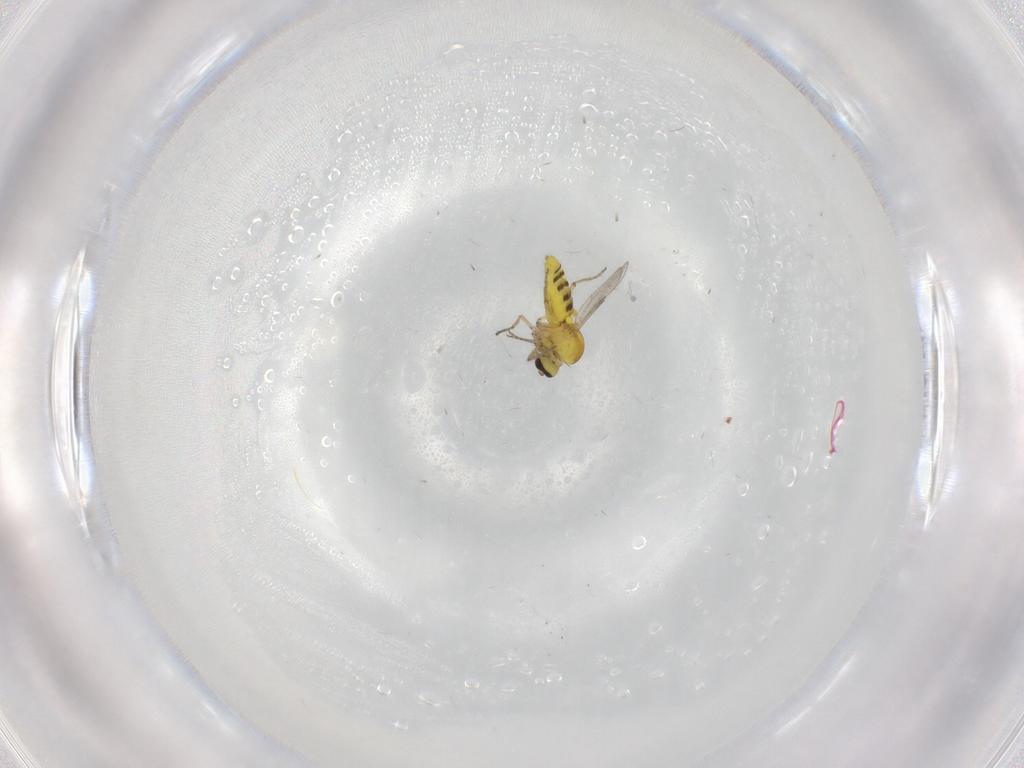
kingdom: Animalia
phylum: Arthropoda
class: Insecta
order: Diptera
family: Ceratopogonidae
